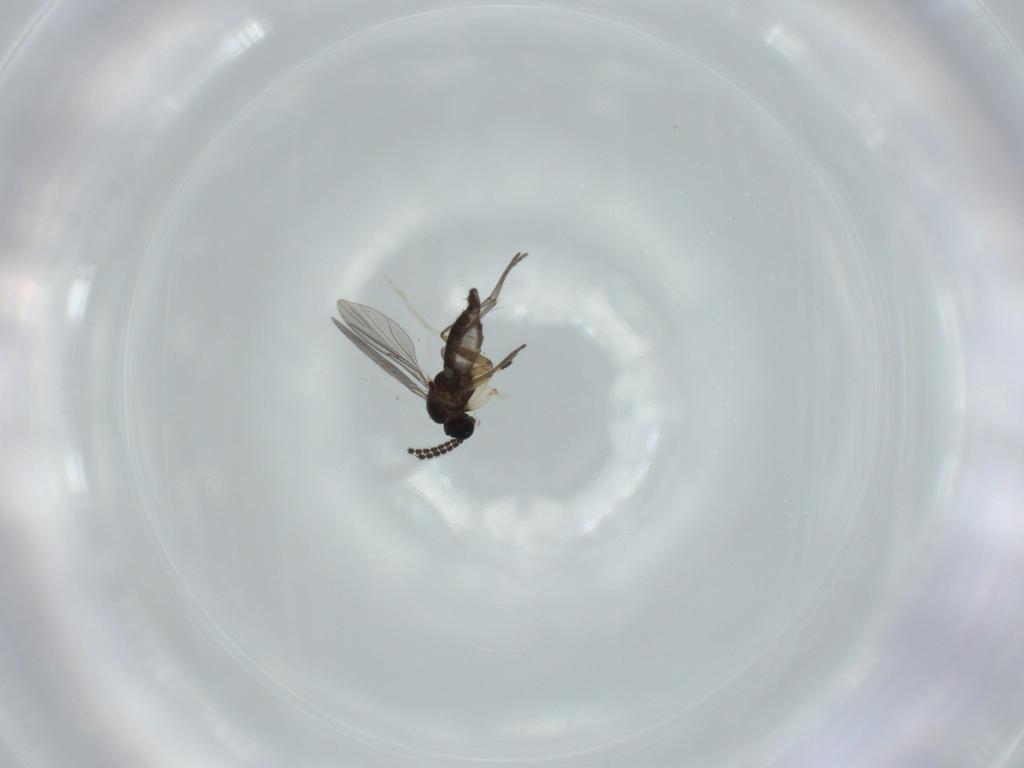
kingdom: Animalia
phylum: Arthropoda
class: Insecta
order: Diptera
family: Sciaridae
